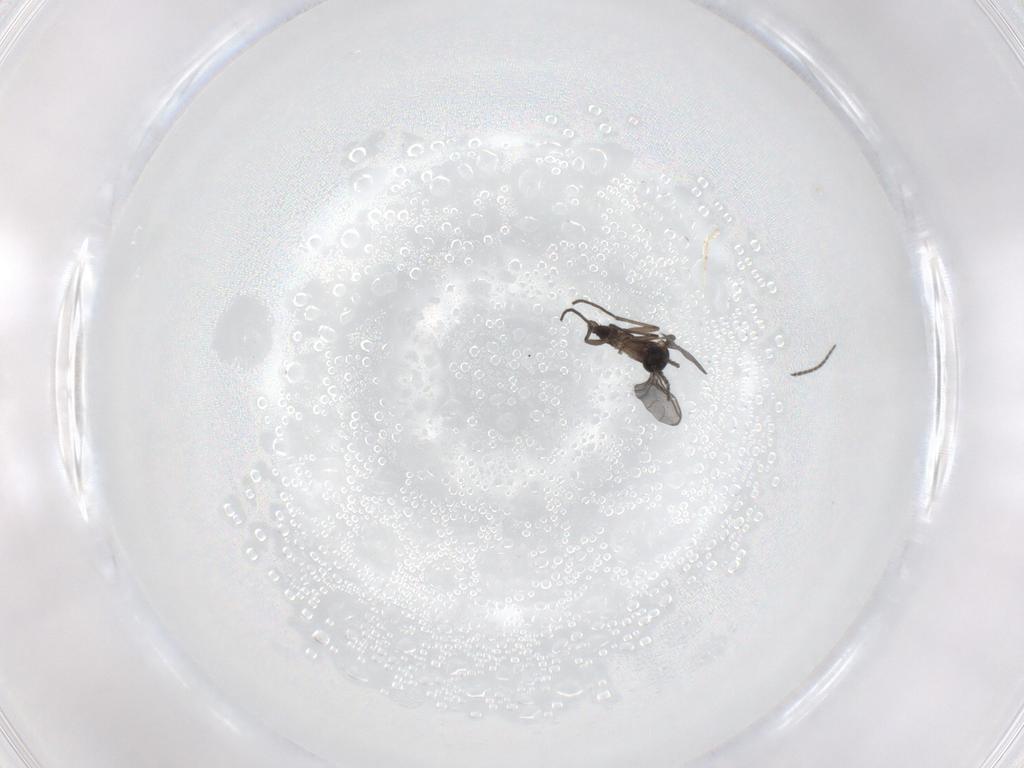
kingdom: Animalia
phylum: Arthropoda
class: Insecta
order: Diptera
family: Sciaridae
